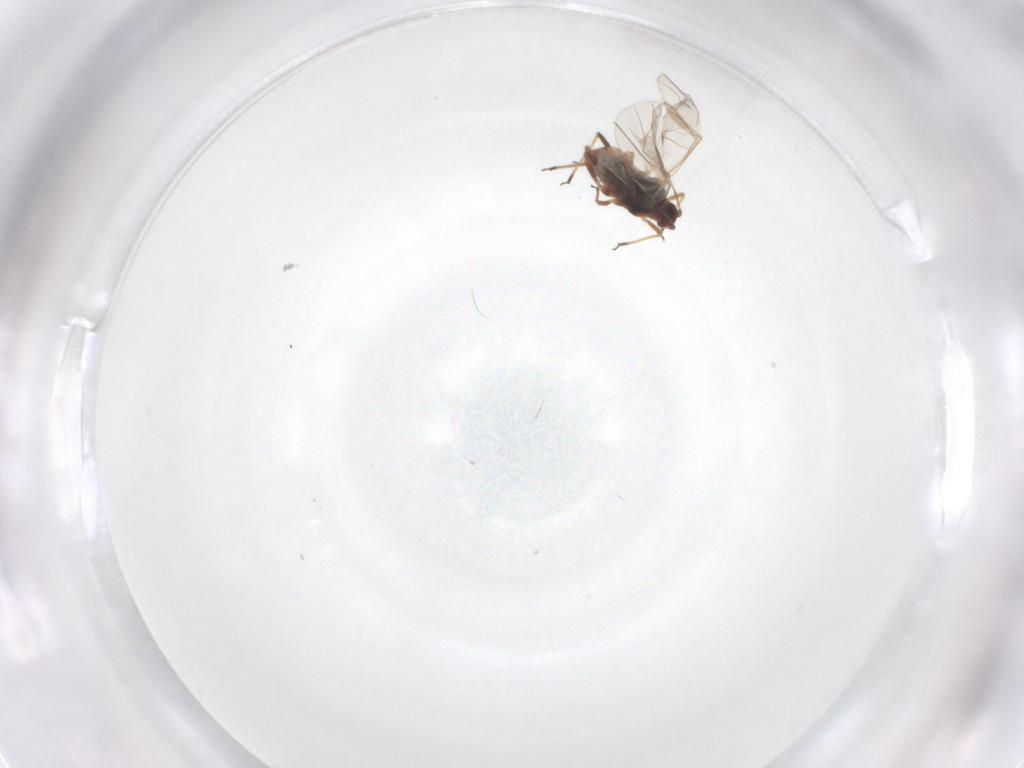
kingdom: Animalia
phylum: Arthropoda
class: Insecta
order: Hemiptera
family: Aphididae
